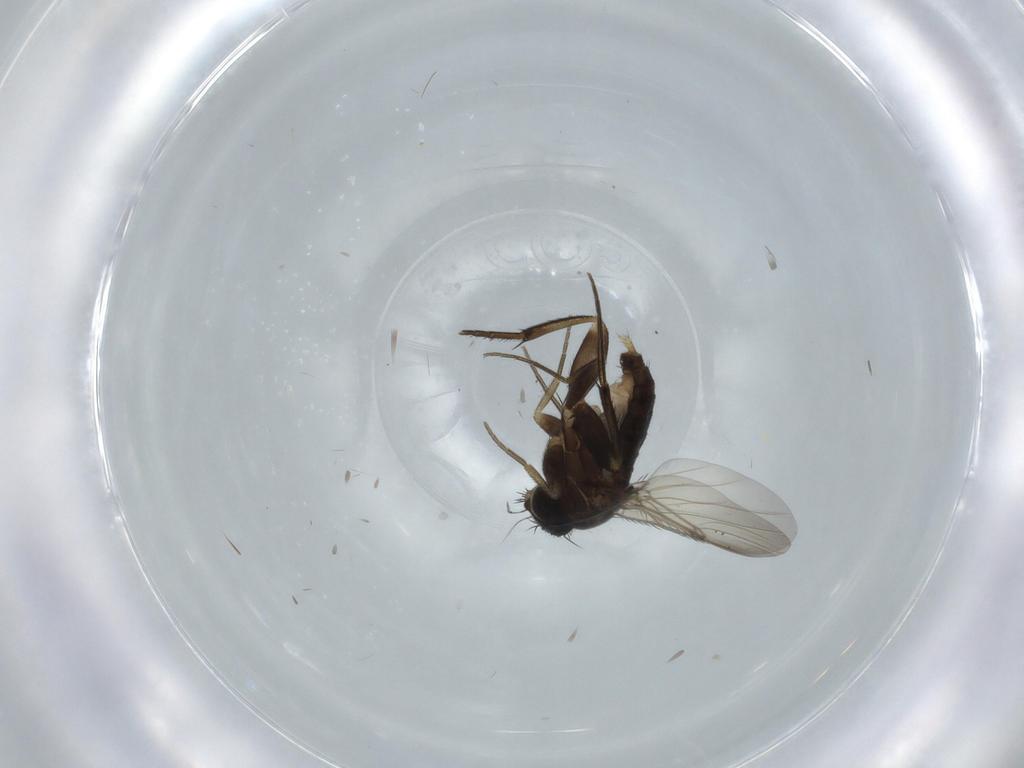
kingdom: Animalia
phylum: Arthropoda
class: Insecta
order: Diptera
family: Phoridae
